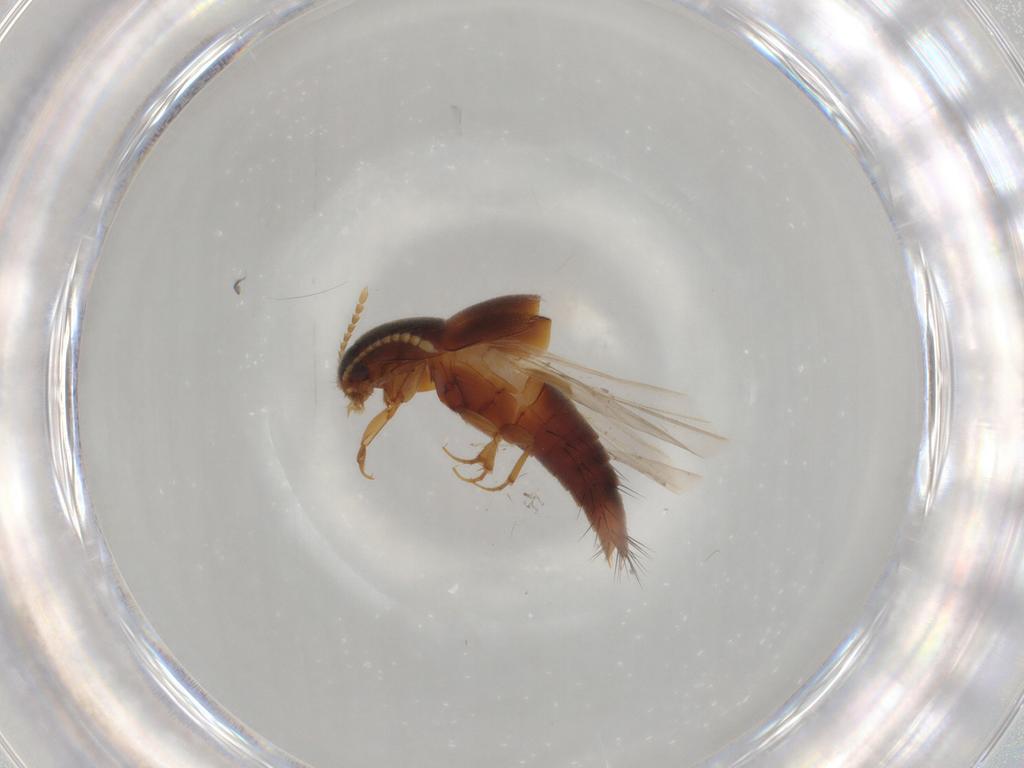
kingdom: Animalia
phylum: Arthropoda
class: Insecta
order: Coleoptera
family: Staphylinidae
